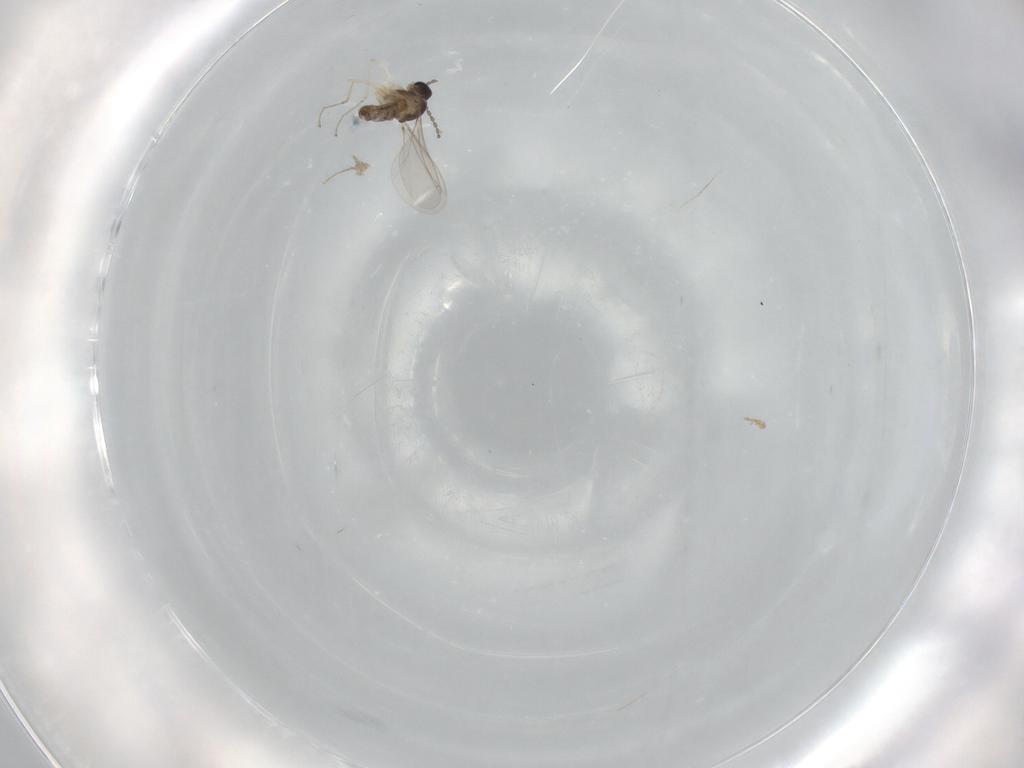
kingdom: Animalia
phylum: Arthropoda
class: Insecta
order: Diptera
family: Cecidomyiidae
